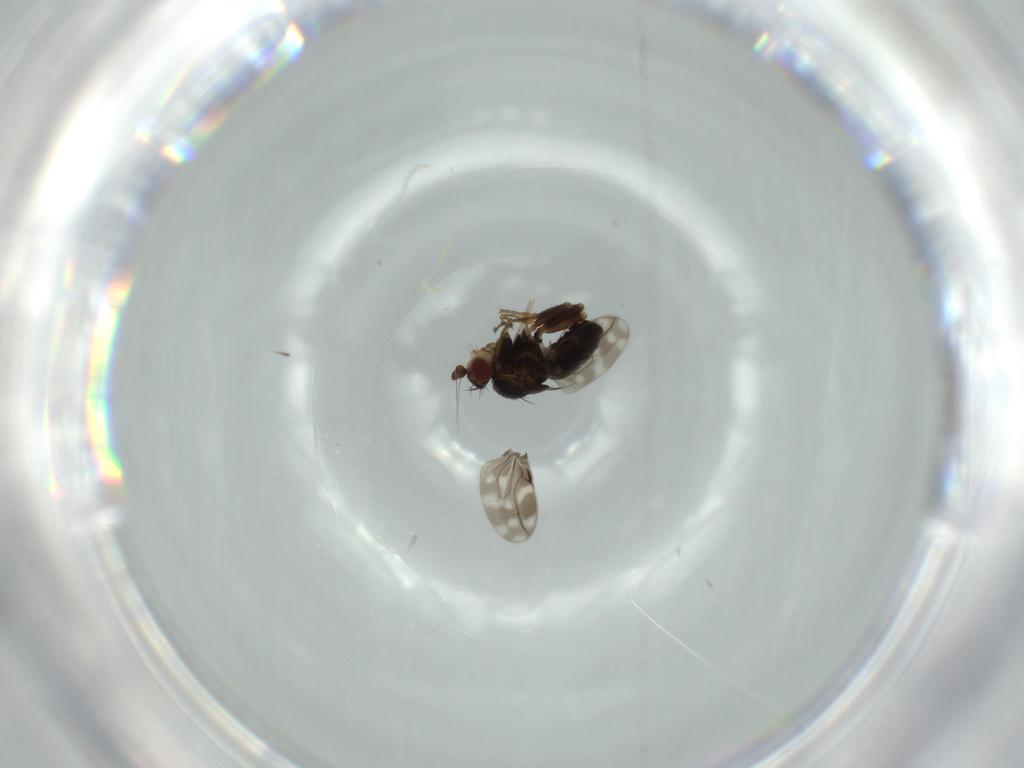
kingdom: Animalia
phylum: Arthropoda
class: Insecta
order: Diptera
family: Sphaeroceridae
